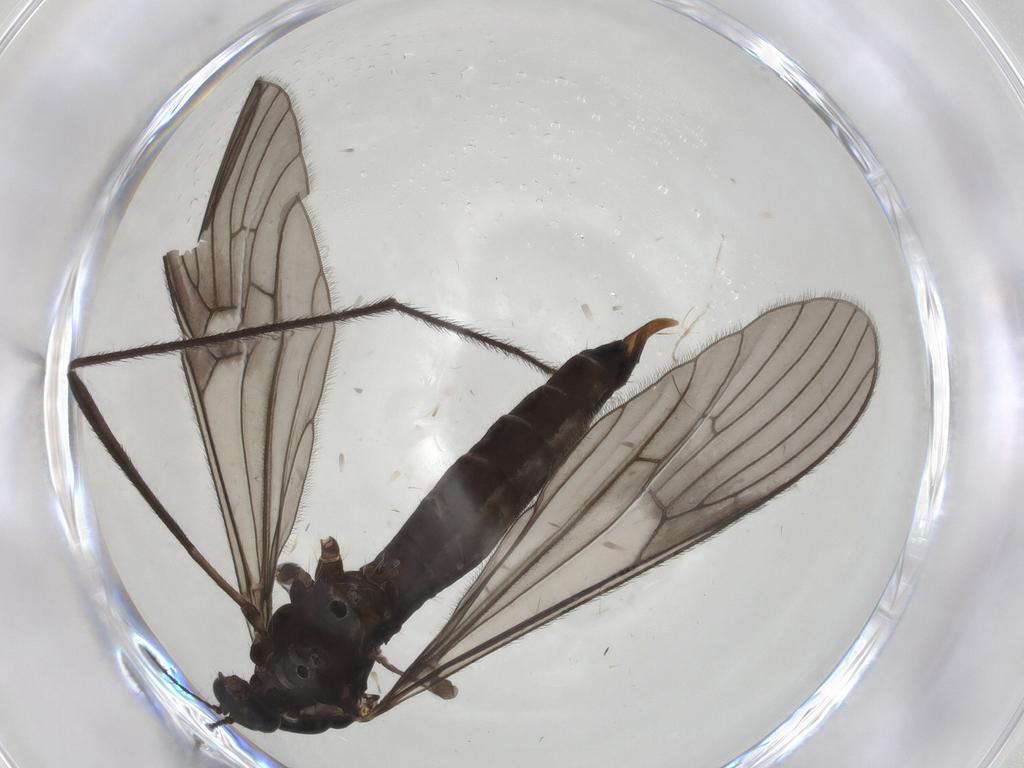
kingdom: Animalia
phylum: Arthropoda
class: Insecta
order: Diptera
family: Limoniidae
